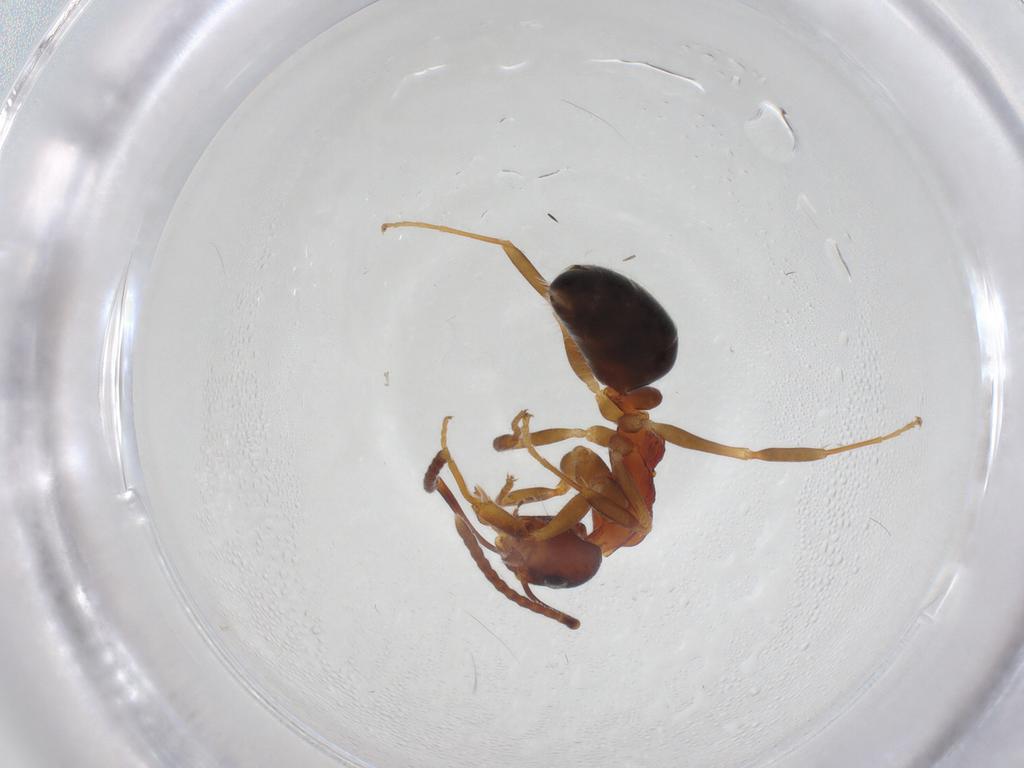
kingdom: Animalia
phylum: Arthropoda
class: Insecta
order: Hymenoptera
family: Formicidae
